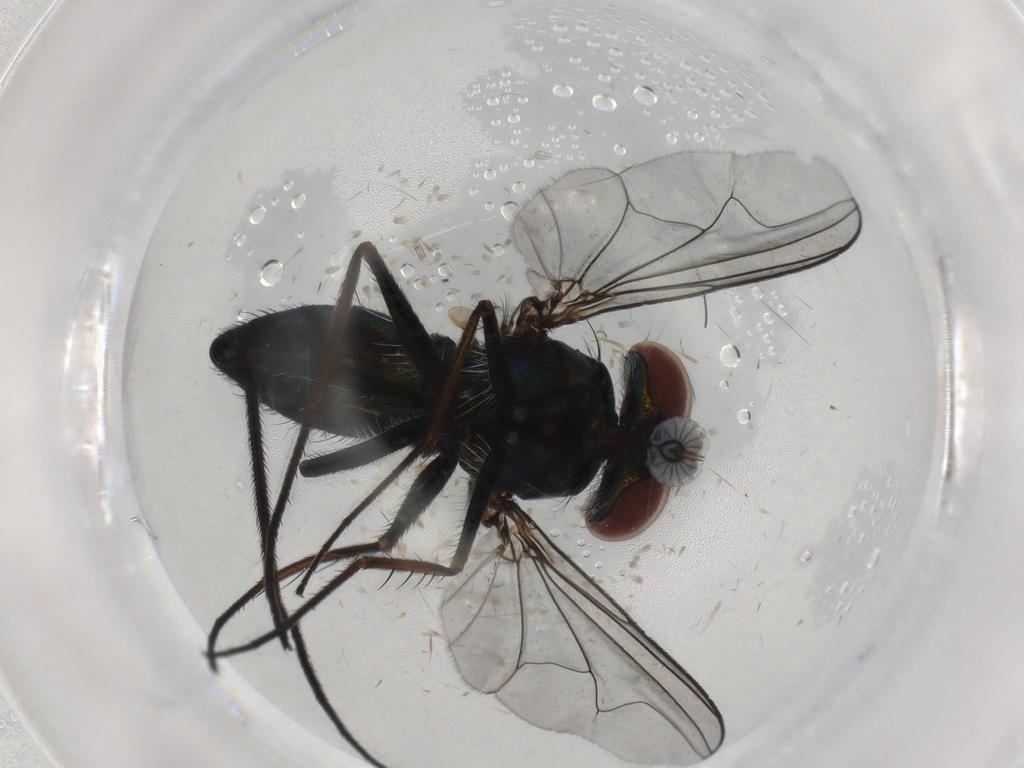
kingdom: Animalia
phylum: Arthropoda
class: Insecta
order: Diptera
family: Dolichopodidae
